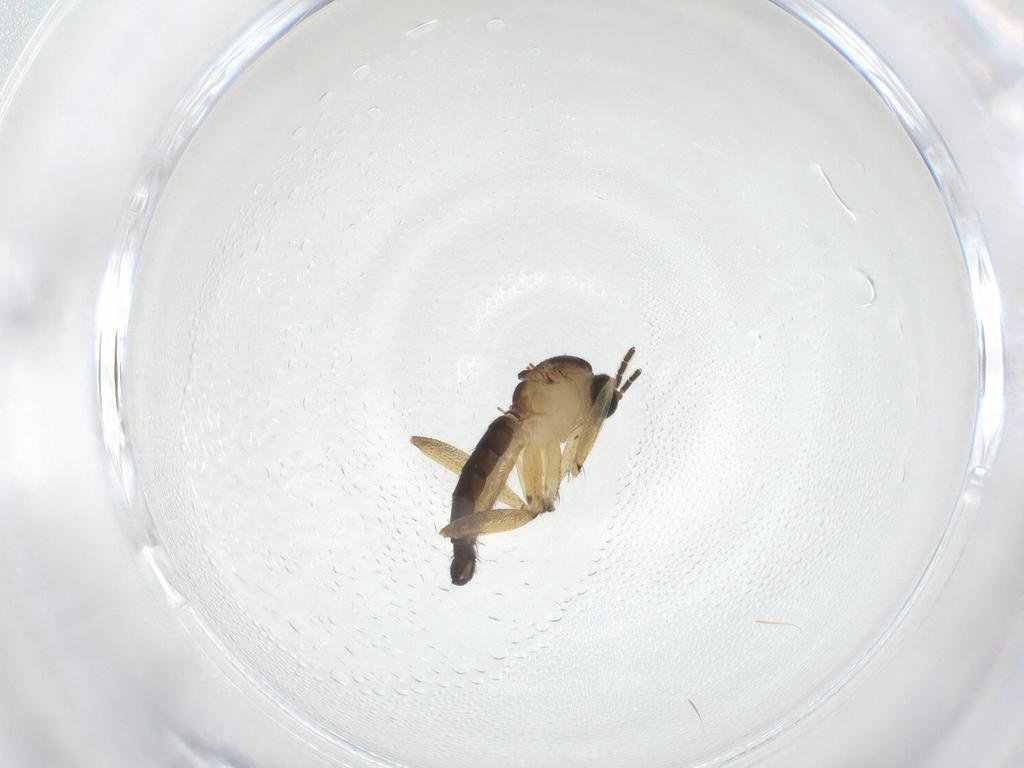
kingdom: Animalia
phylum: Arthropoda
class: Insecta
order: Diptera
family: Sciaridae
